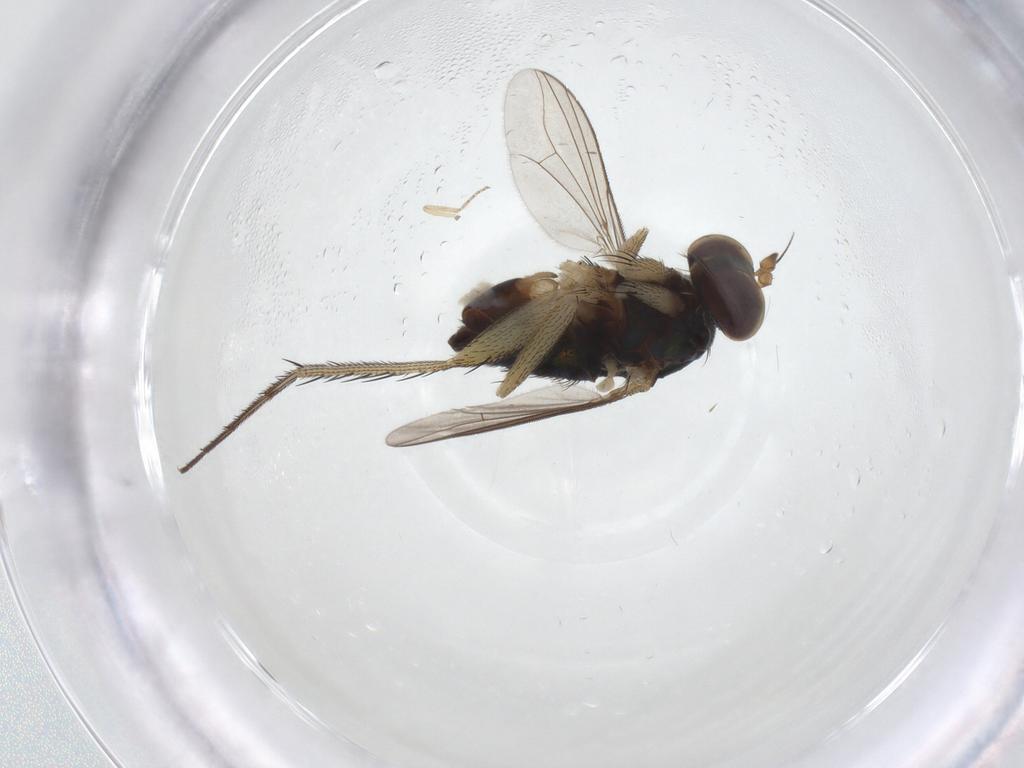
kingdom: Animalia
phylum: Arthropoda
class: Insecta
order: Diptera
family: Dolichopodidae
